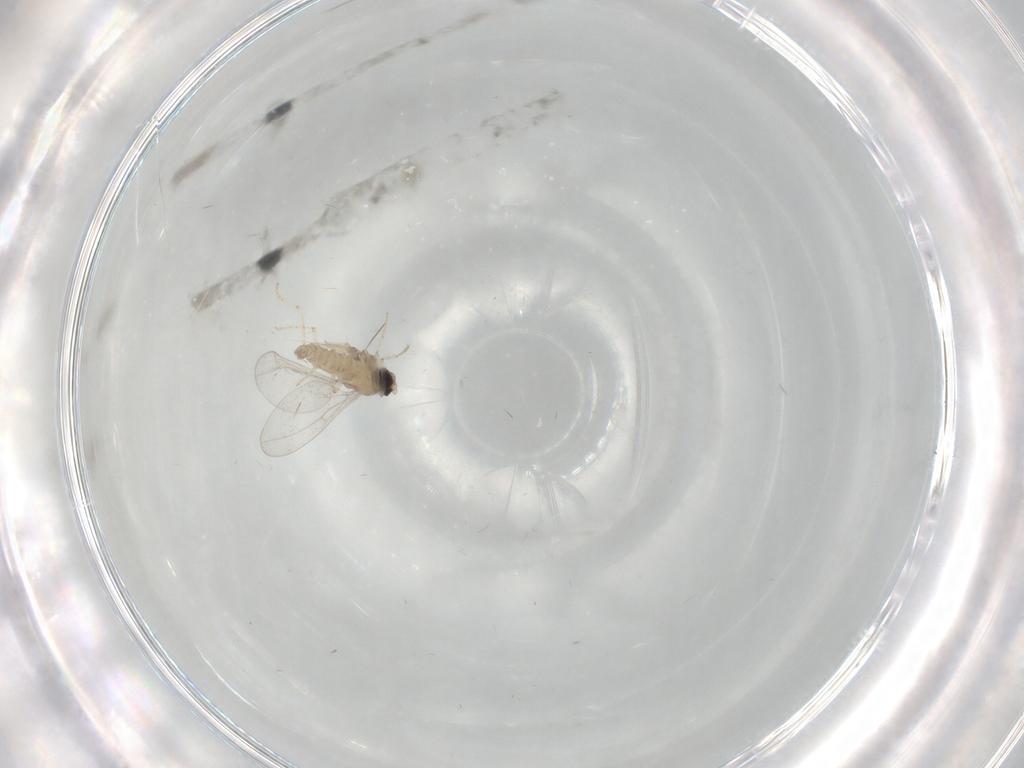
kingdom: Animalia
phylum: Arthropoda
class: Insecta
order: Diptera
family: Cecidomyiidae
